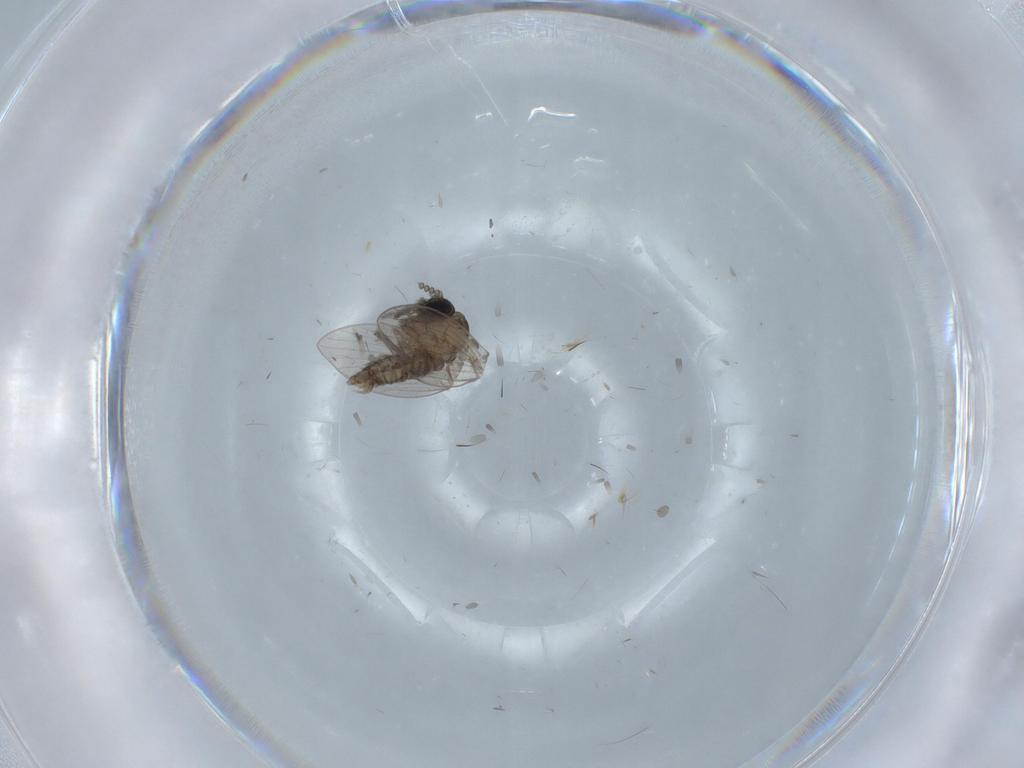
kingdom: Animalia
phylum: Arthropoda
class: Insecta
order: Diptera
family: Drosophilidae
